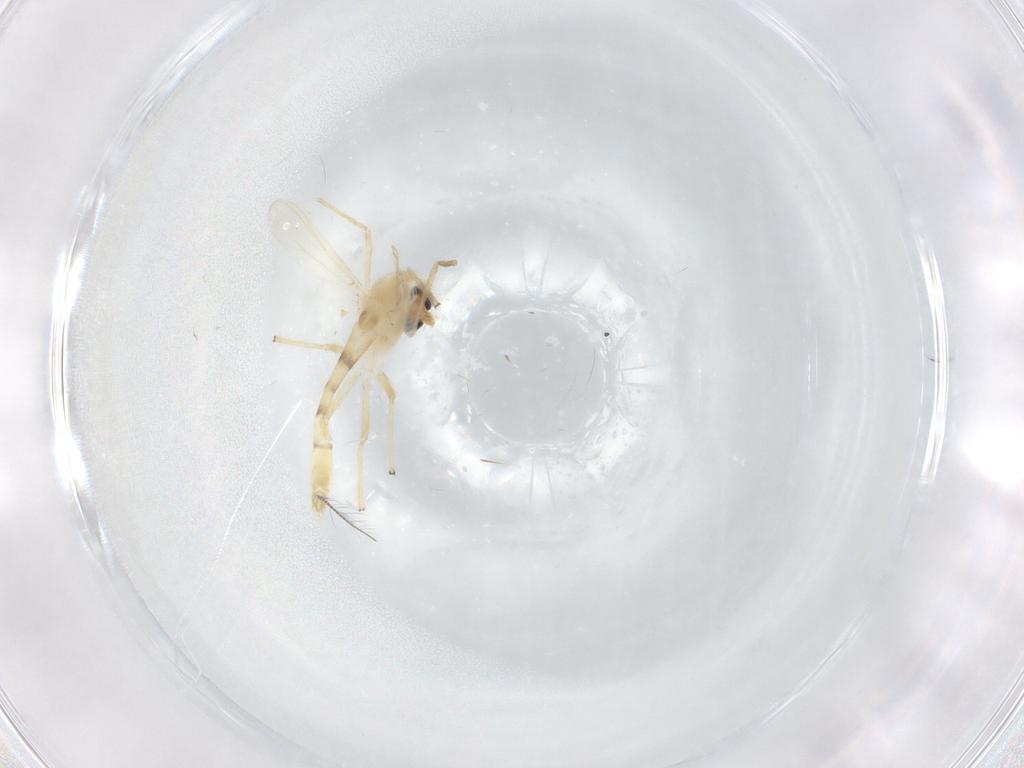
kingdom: Animalia
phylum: Arthropoda
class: Insecta
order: Diptera
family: Chironomidae
